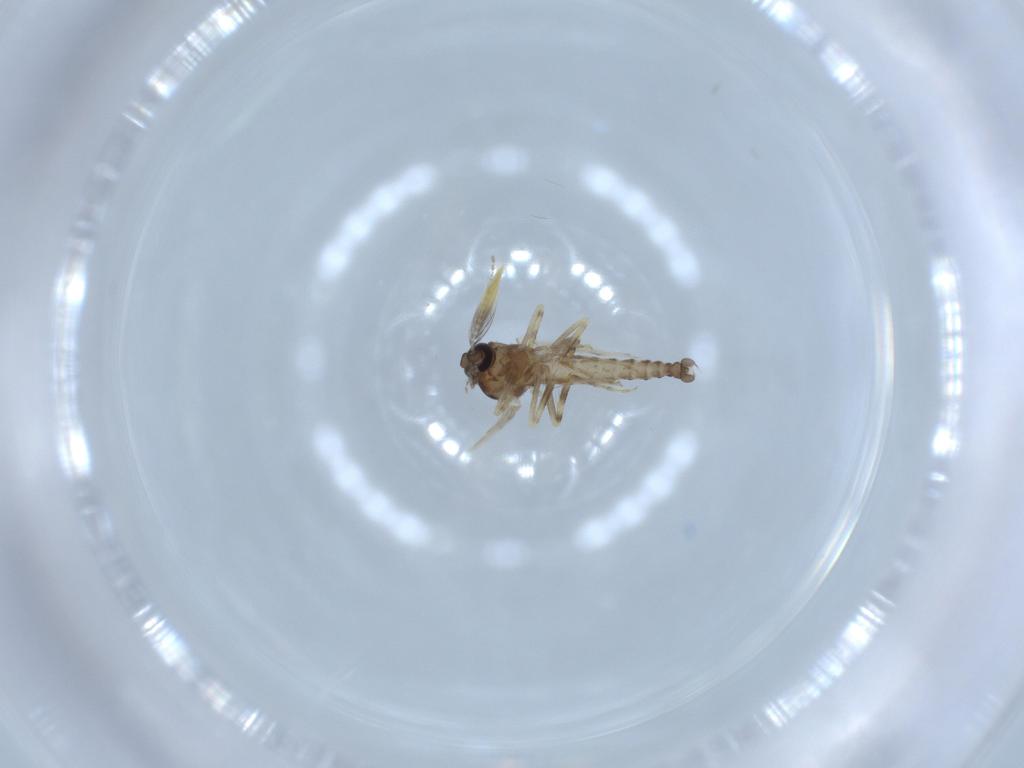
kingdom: Animalia
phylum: Arthropoda
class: Insecta
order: Diptera
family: Ceratopogonidae
